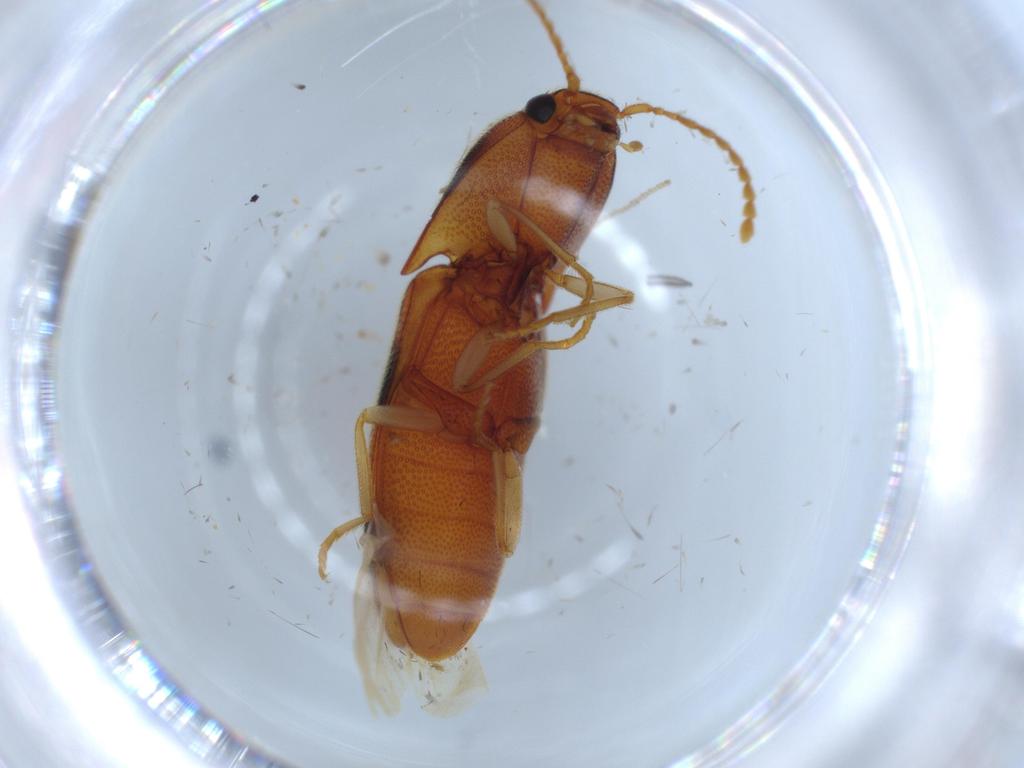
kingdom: Animalia
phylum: Arthropoda
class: Insecta
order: Coleoptera
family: Elateridae
